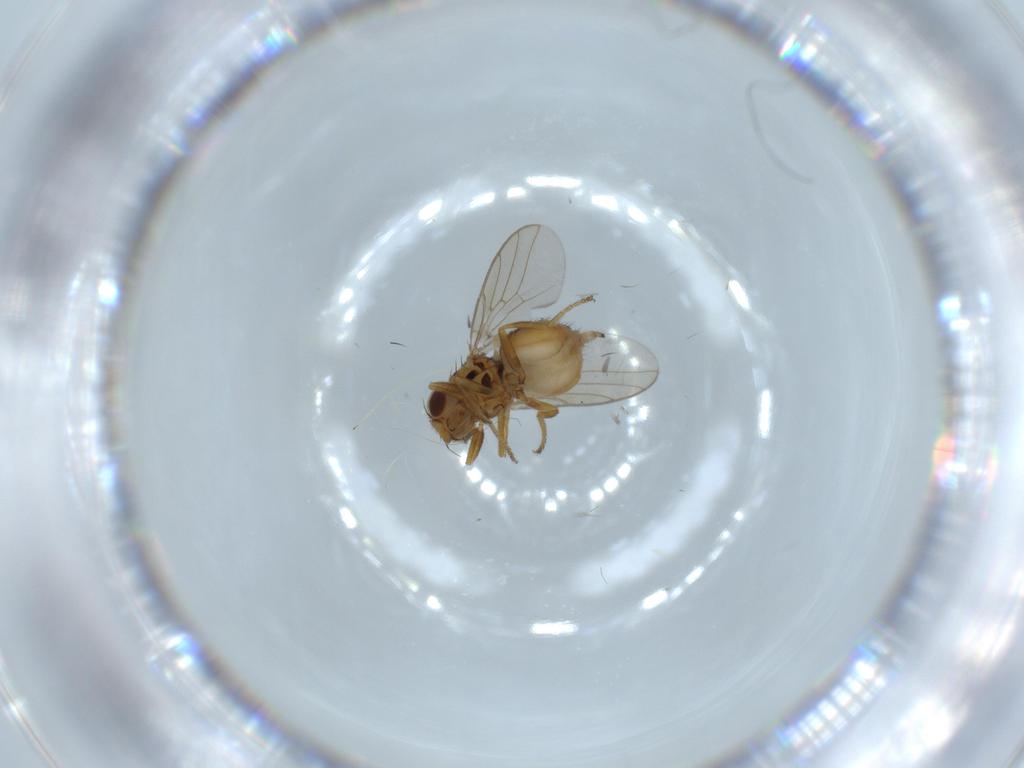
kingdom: Animalia
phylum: Arthropoda
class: Insecta
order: Diptera
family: Chloropidae
